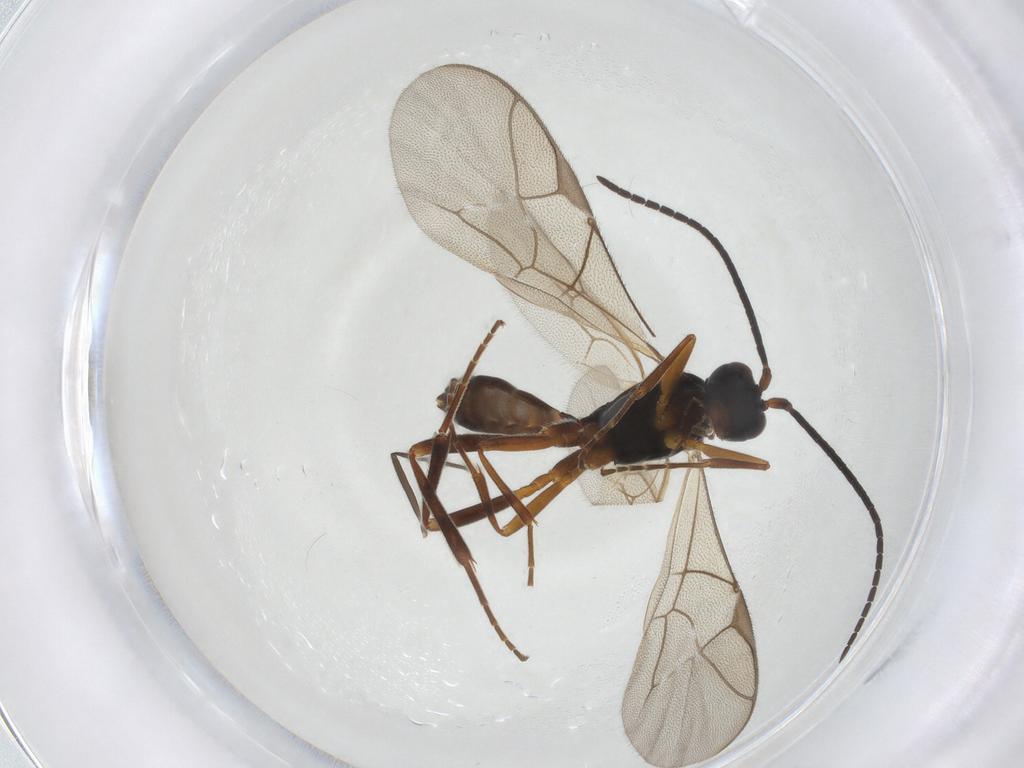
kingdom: Animalia
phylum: Arthropoda
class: Insecta
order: Hymenoptera
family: Ichneumonidae
